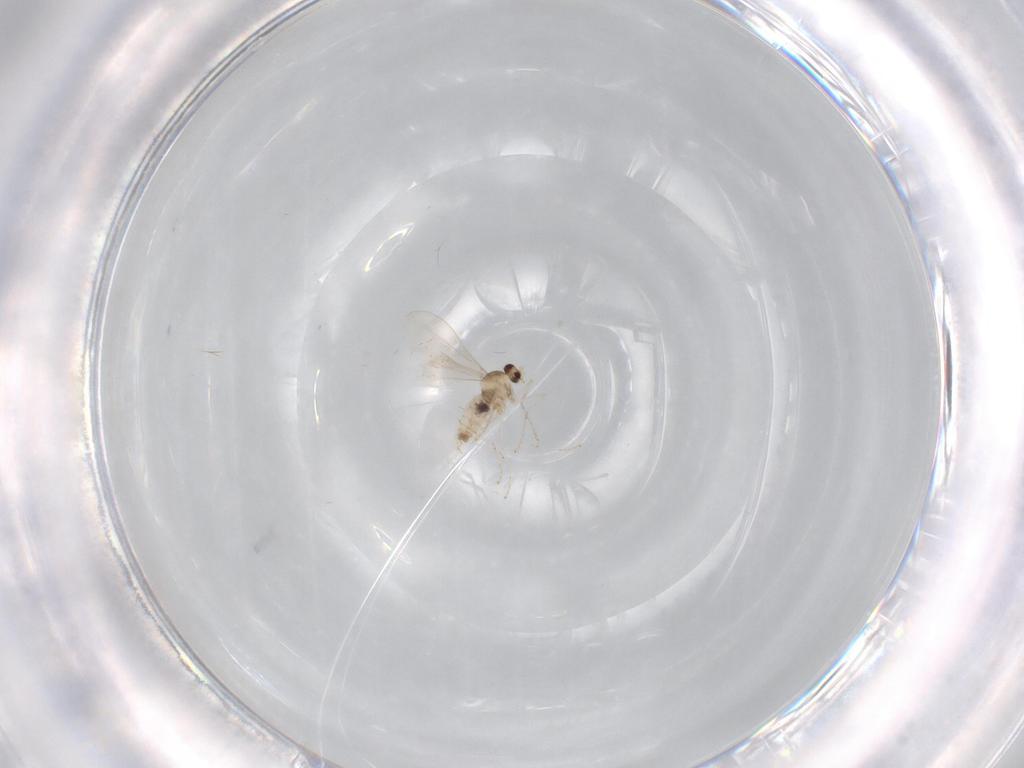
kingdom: Animalia
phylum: Arthropoda
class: Insecta
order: Diptera
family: Cecidomyiidae
